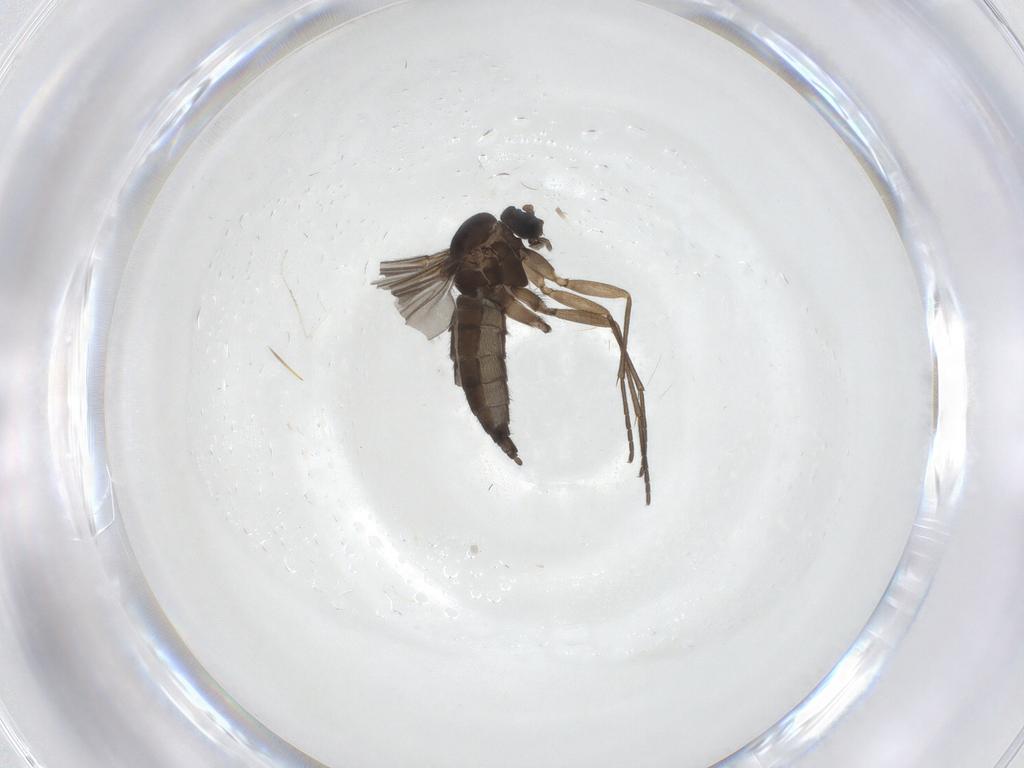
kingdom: Animalia
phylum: Arthropoda
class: Insecta
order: Diptera
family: Sciaridae
